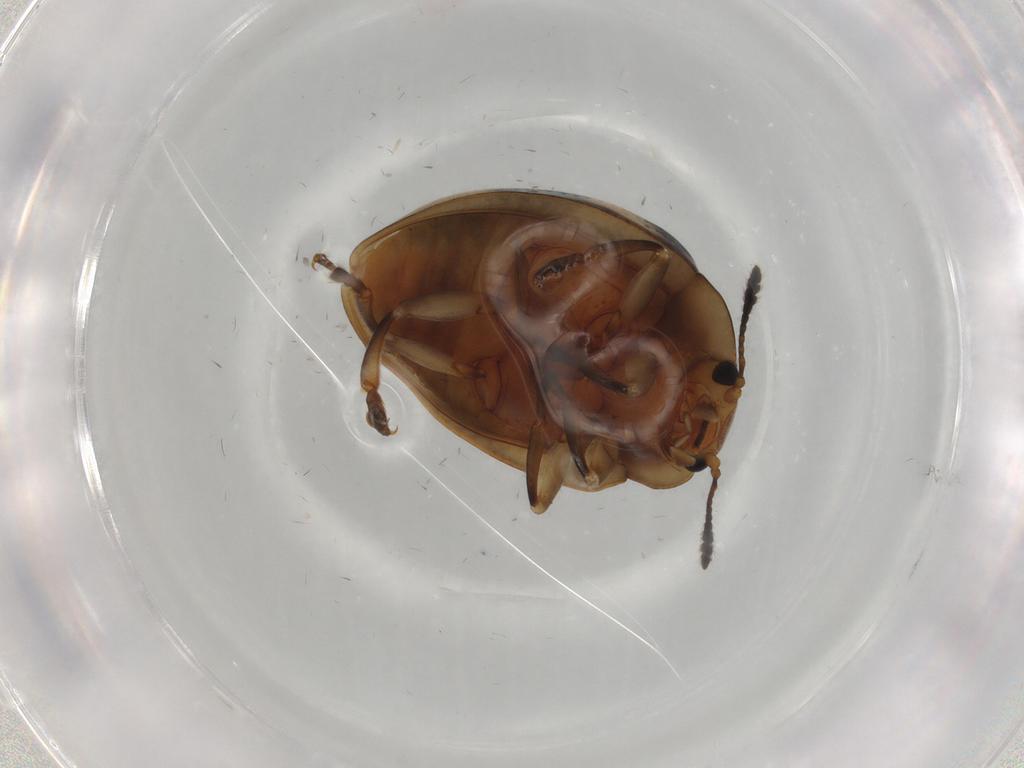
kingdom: Animalia
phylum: Arthropoda
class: Insecta
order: Coleoptera
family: Erotylidae
